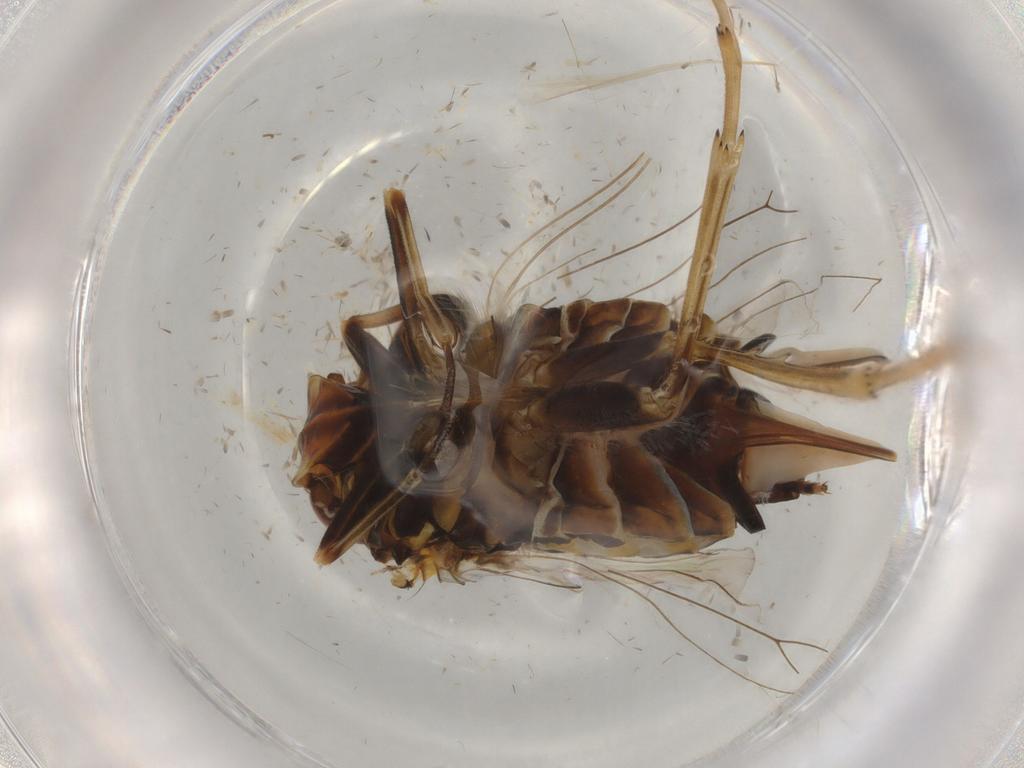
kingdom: Animalia
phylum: Arthropoda
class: Insecta
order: Hemiptera
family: Cixiidae
